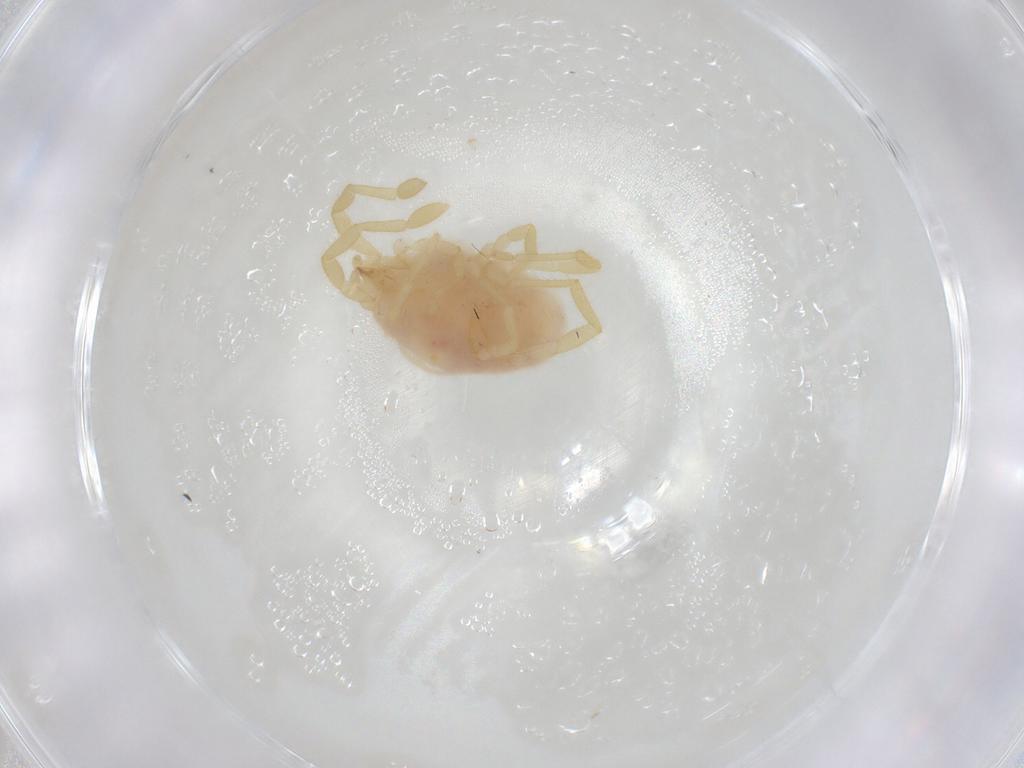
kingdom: Animalia
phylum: Arthropoda
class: Arachnida
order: Trombidiformes
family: Erythraeidae
